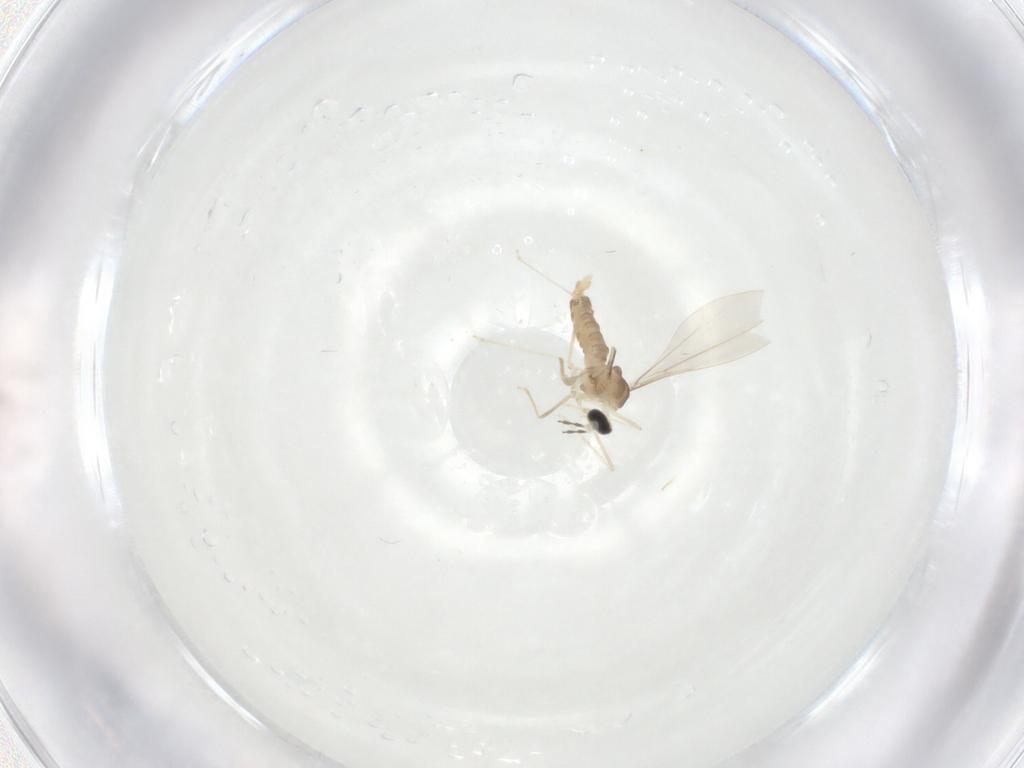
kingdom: Animalia
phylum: Arthropoda
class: Insecta
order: Diptera
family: Cecidomyiidae
